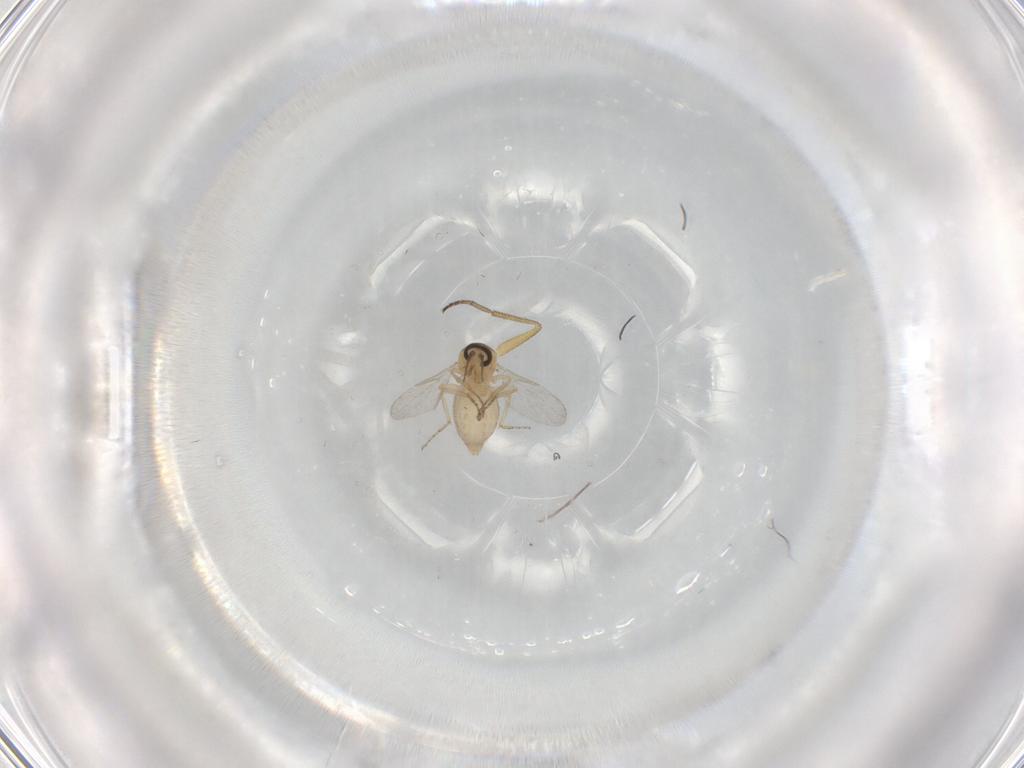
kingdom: Animalia
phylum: Arthropoda
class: Insecta
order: Diptera
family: Ceratopogonidae
